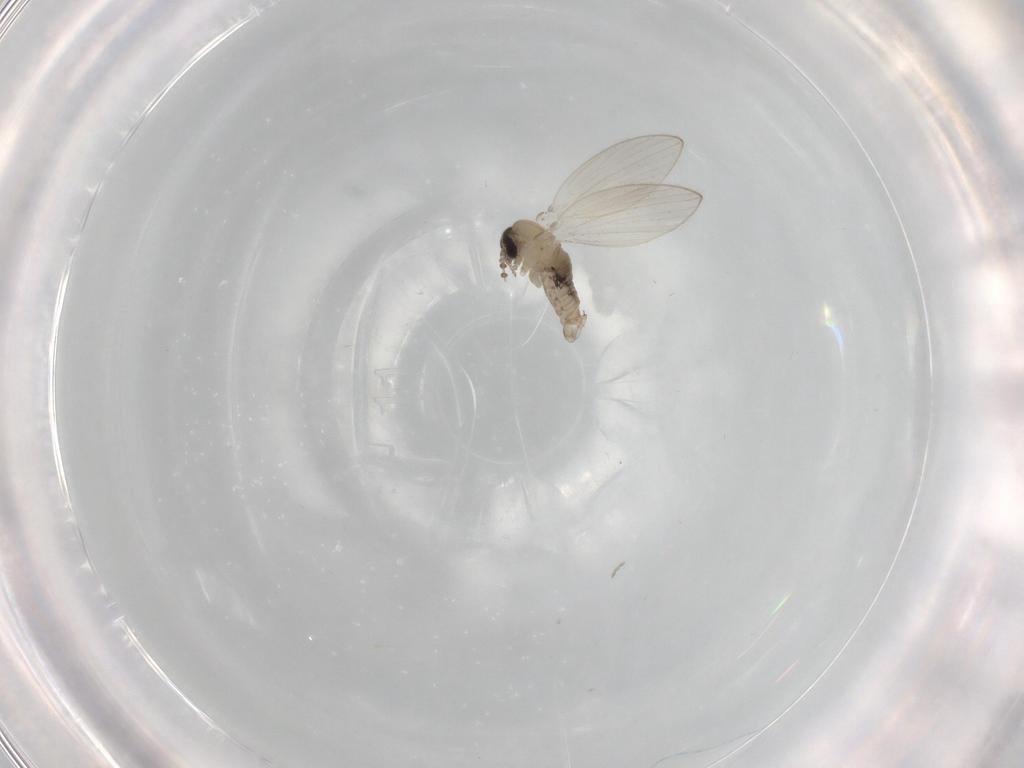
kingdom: Animalia
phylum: Arthropoda
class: Insecta
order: Diptera
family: Psychodidae
